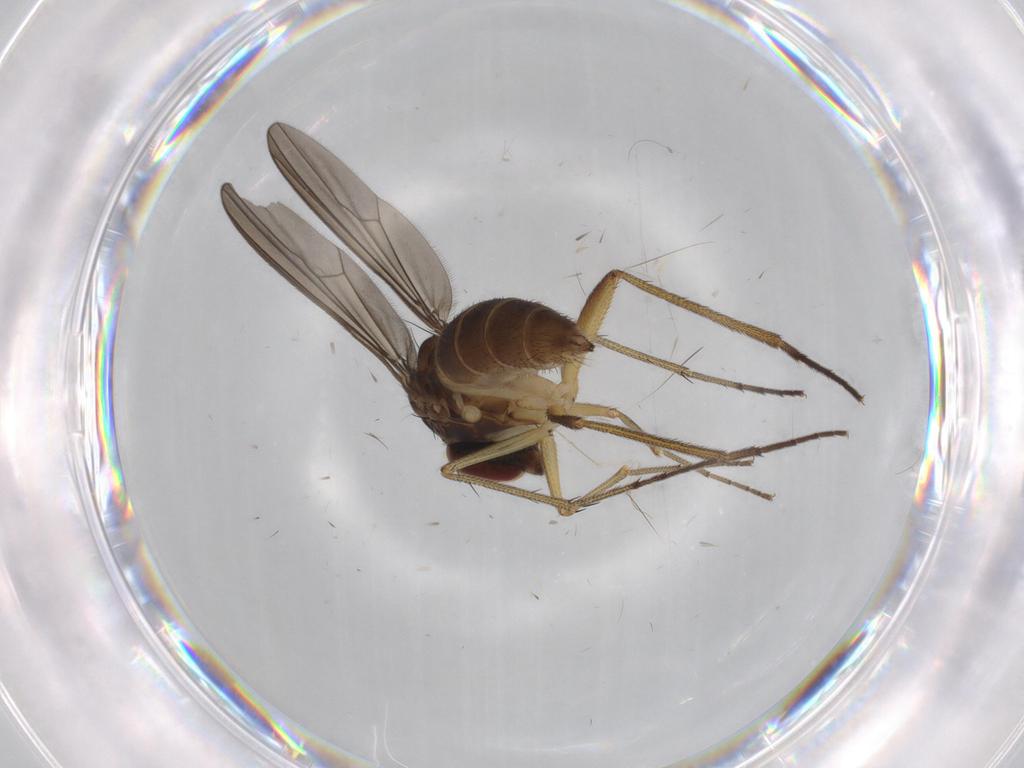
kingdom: Animalia
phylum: Arthropoda
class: Insecta
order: Diptera
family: Dolichopodidae
